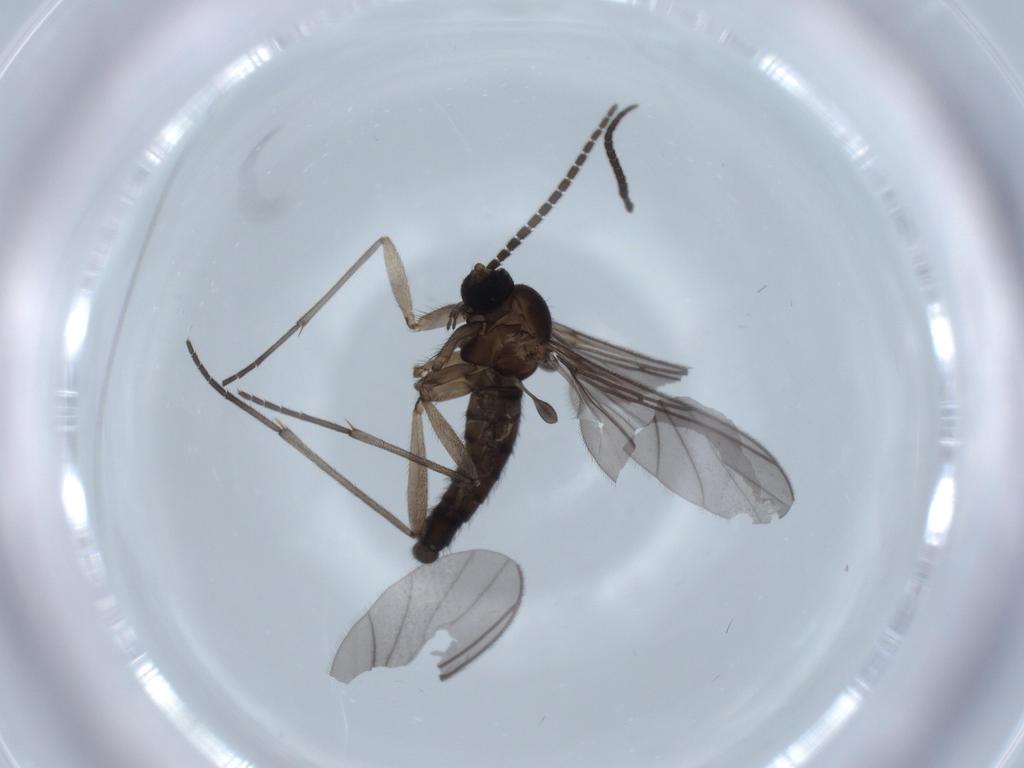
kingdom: Animalia
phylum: Arthropoda
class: Insecta
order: Diptera
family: Sciaridae
